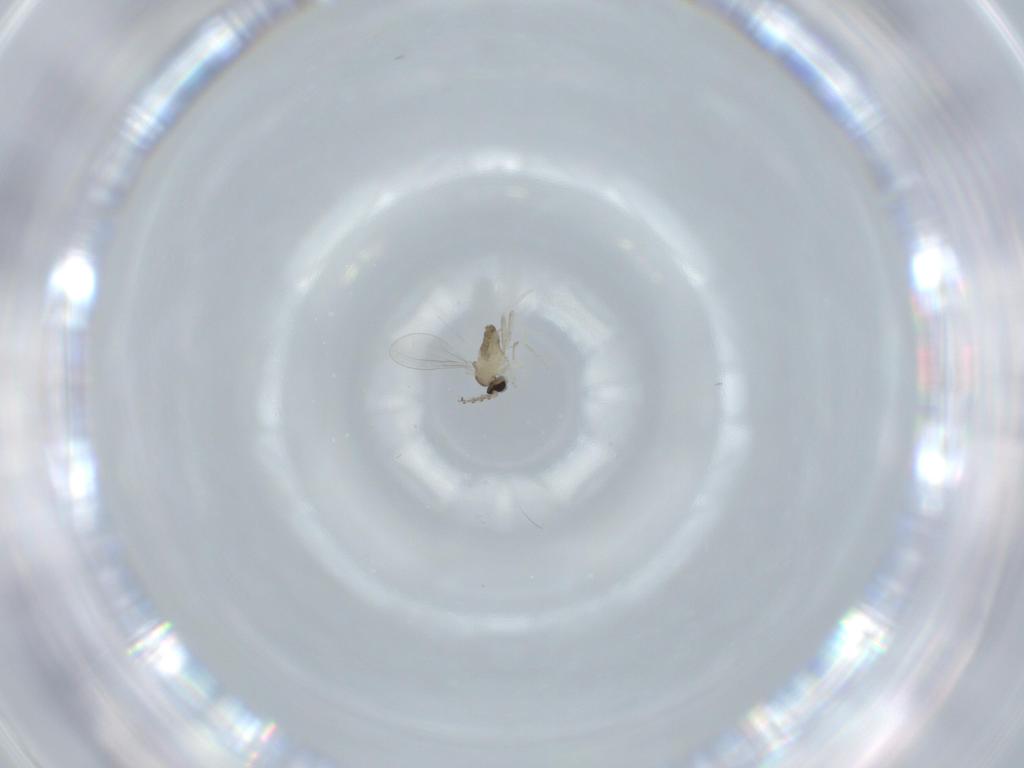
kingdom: Animalia
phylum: Arthropoda
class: Insecta
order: Diptera
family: Cecidomyiidae
